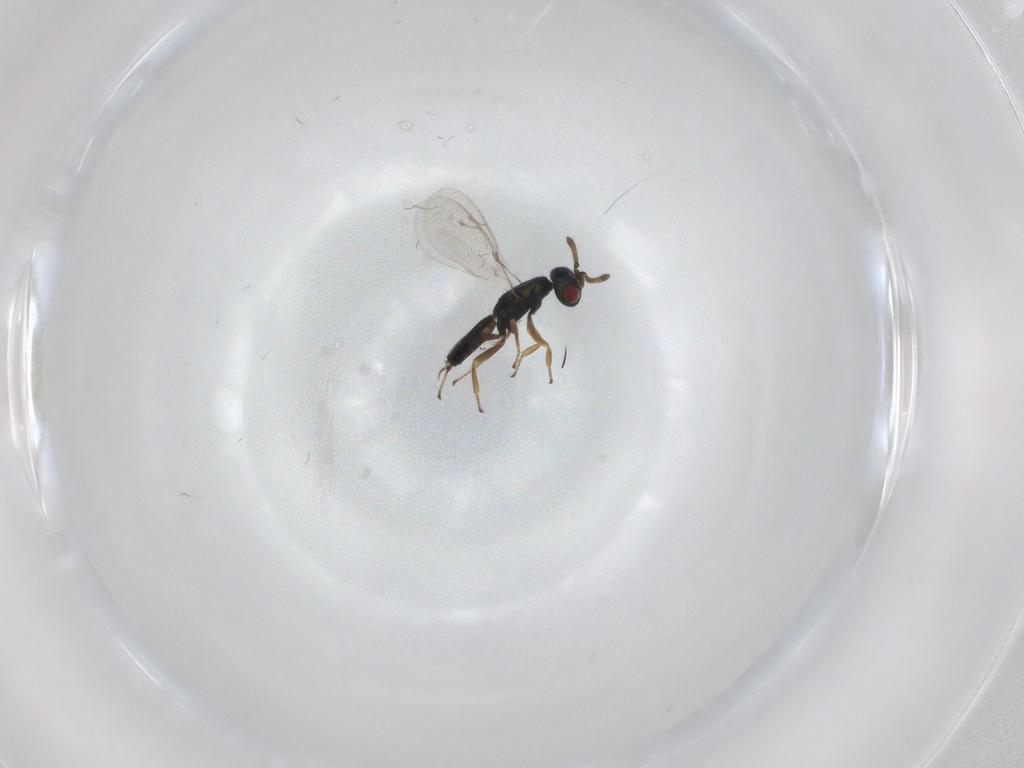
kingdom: Animalia
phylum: Arthropoda
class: Insecta
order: Hymenoptera
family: Pteromalidae
